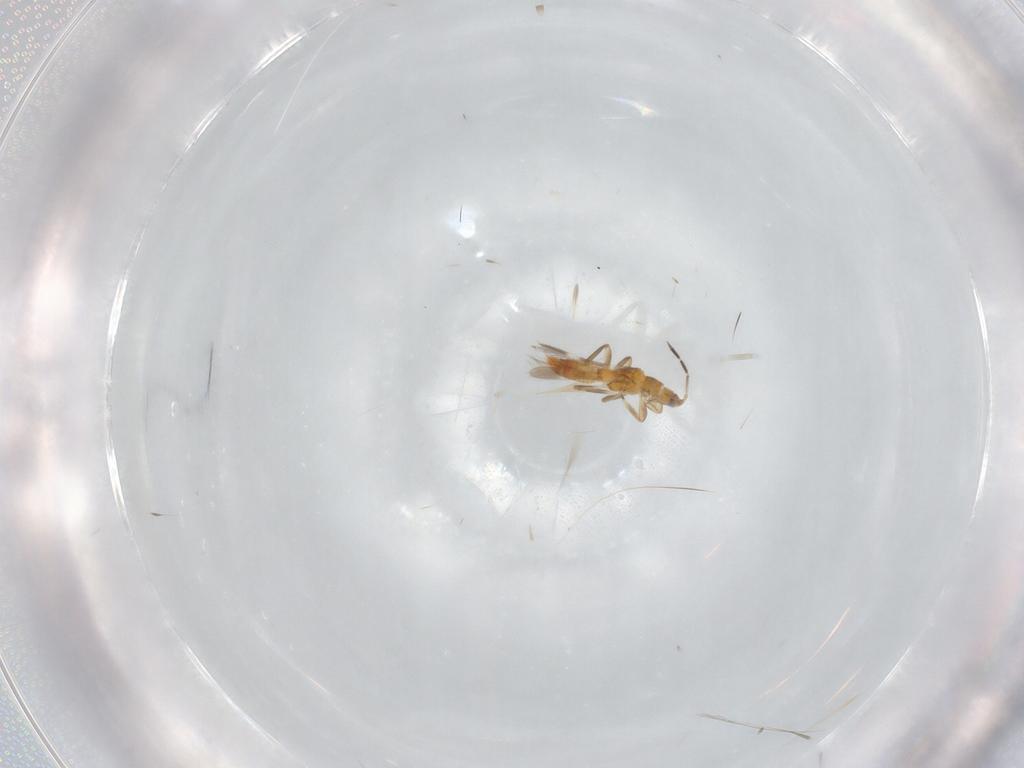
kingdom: Animalia
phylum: Arthropoda
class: Insecta
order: Thysanoptera
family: Aeolothripidae
